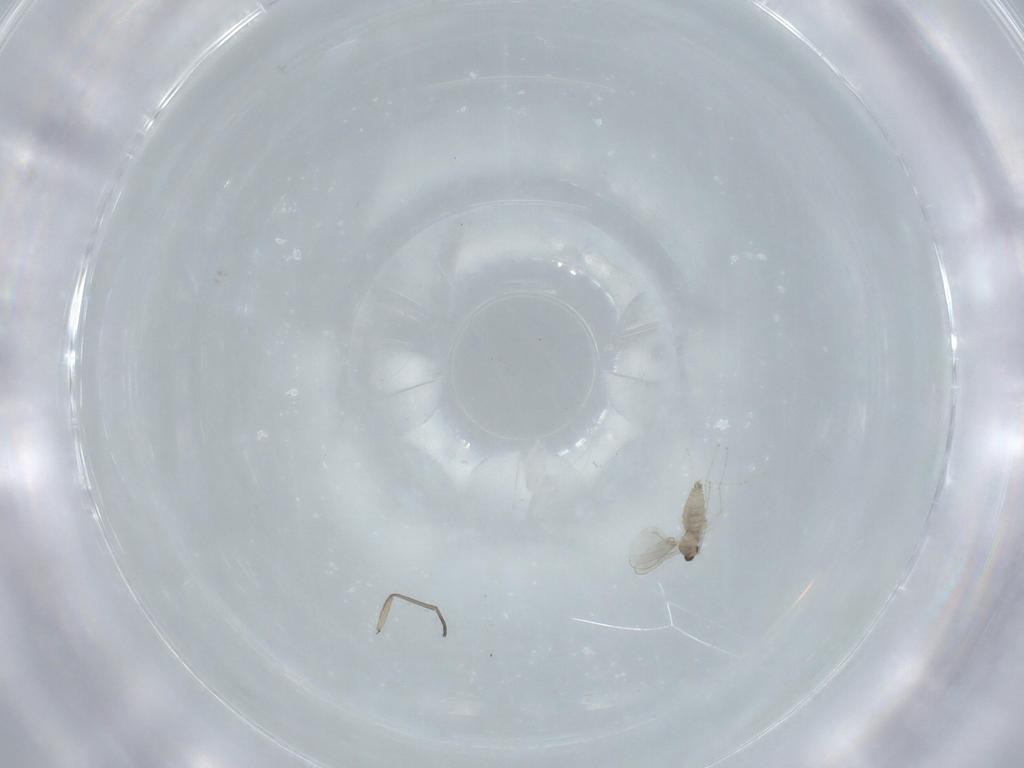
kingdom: Animalia
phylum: Arthropoda
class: Insecta
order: Diptera
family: Cecidomyiidae
